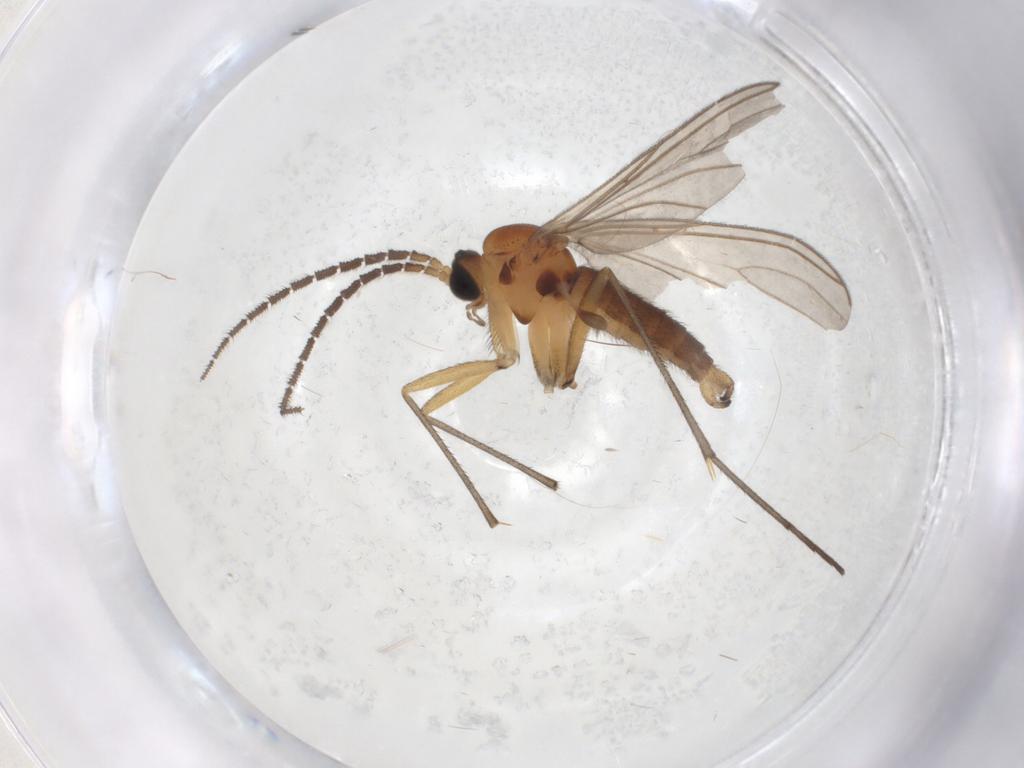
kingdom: Animalia
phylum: Arthropoda
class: Insecta
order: Diptera
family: Sciaridae
